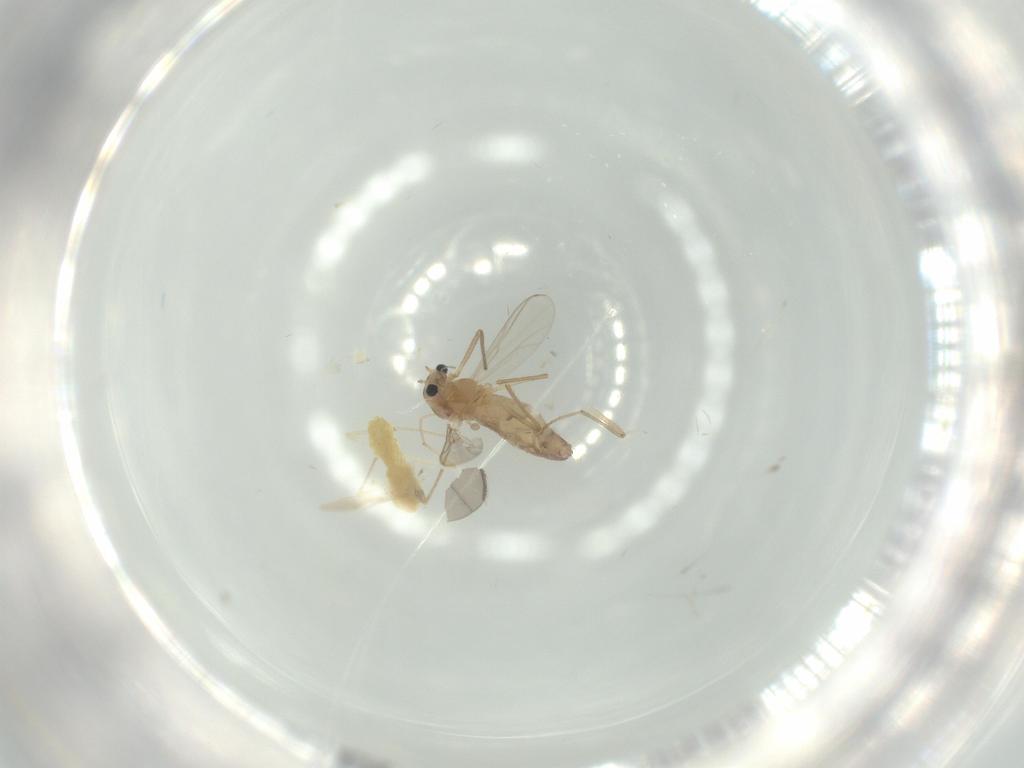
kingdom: Animalia
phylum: Arthropoda
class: Insecta
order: Diptera
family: Chironomidae
